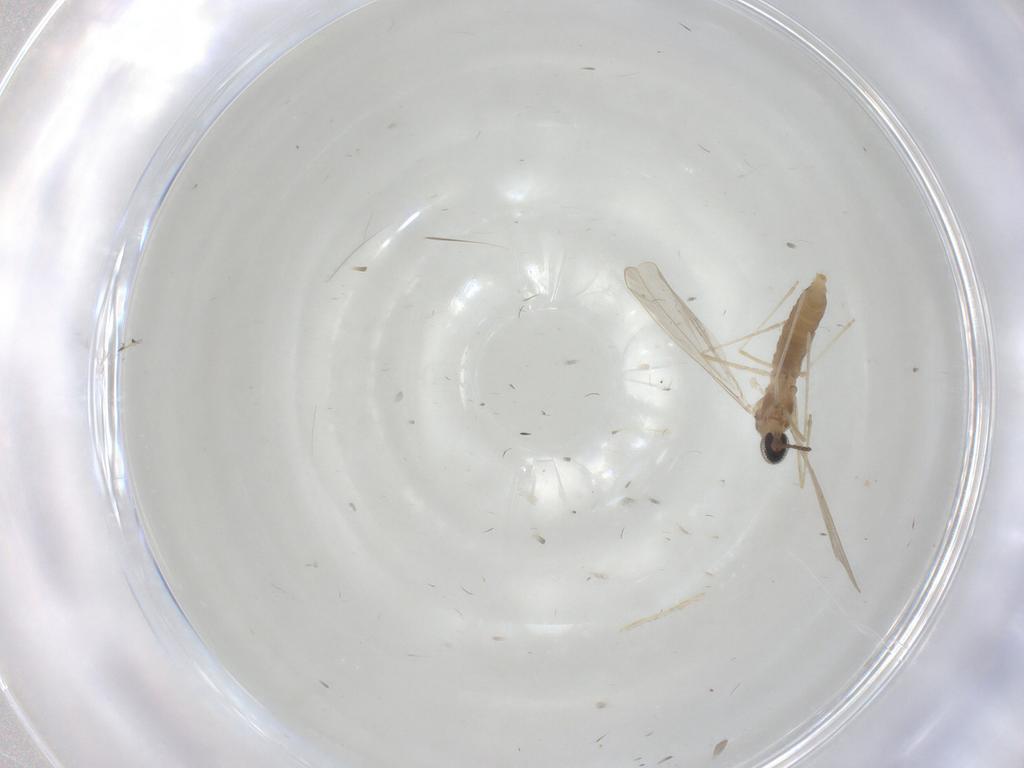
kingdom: Animalia
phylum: Arthropoda
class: Insecta
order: Diptera
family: Cecidomyiidae
